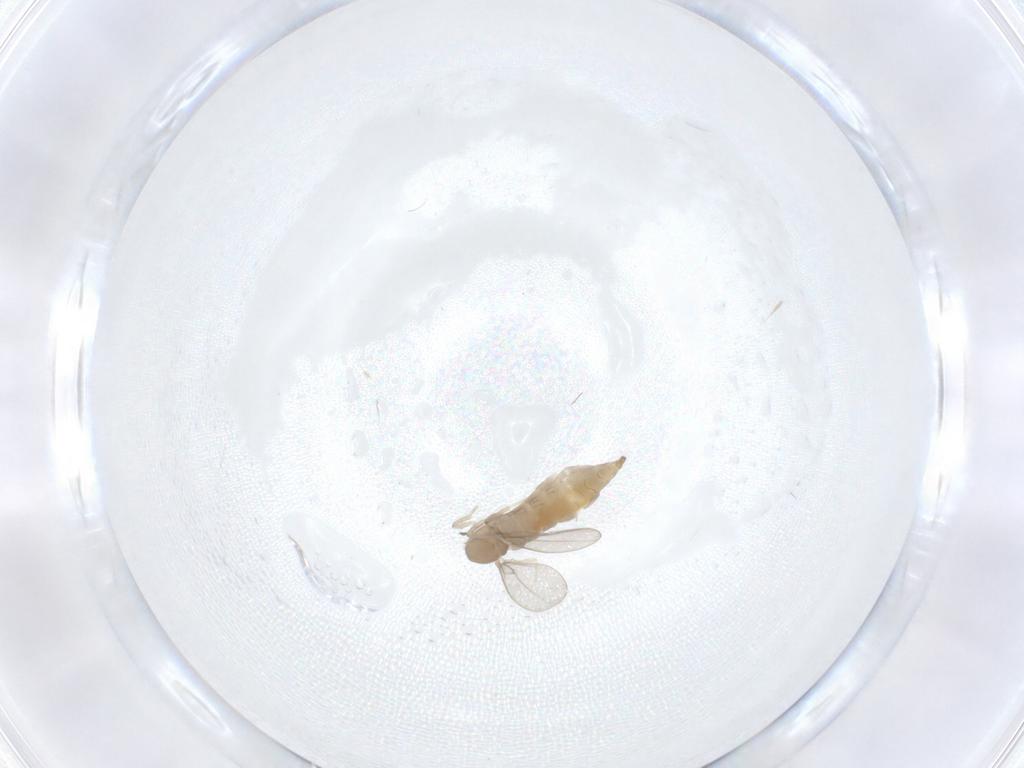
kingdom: Animalia
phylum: Arthropoda
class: Insecta
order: Diptera
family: Cecidomyiidae
